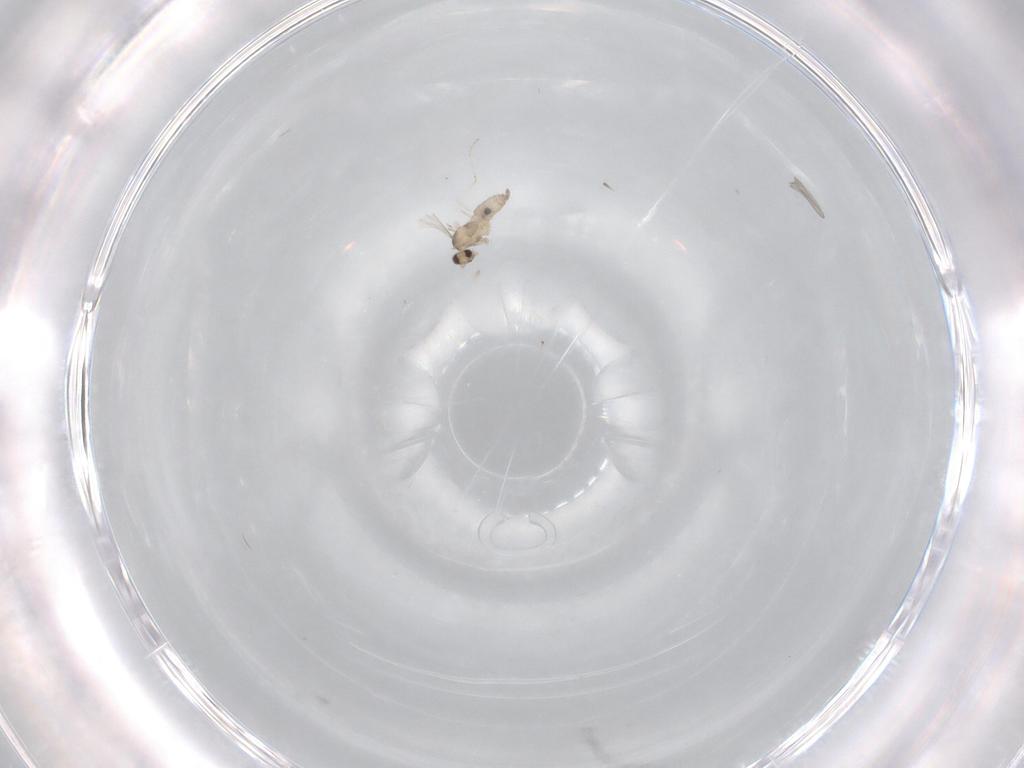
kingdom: Animalia
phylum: Arthropoda
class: Insecta
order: Diptera
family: Cecidomyiidae
